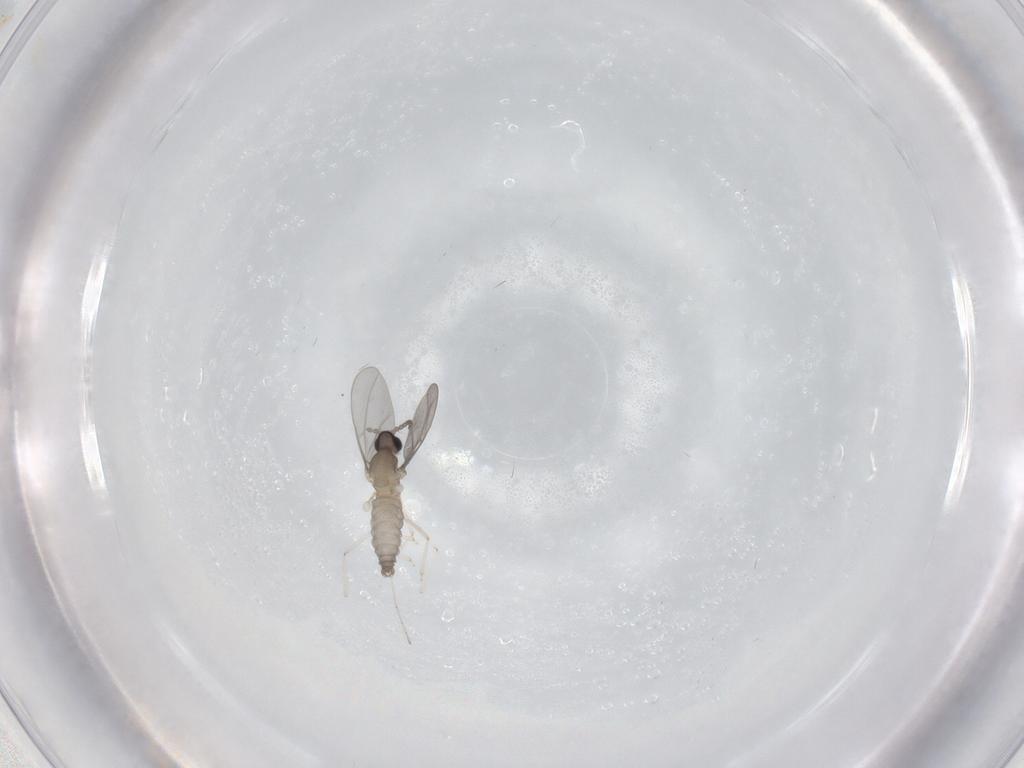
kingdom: Animalia
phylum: Arthropoda
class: Insecta
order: Diptera
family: Cecidomyiidae
